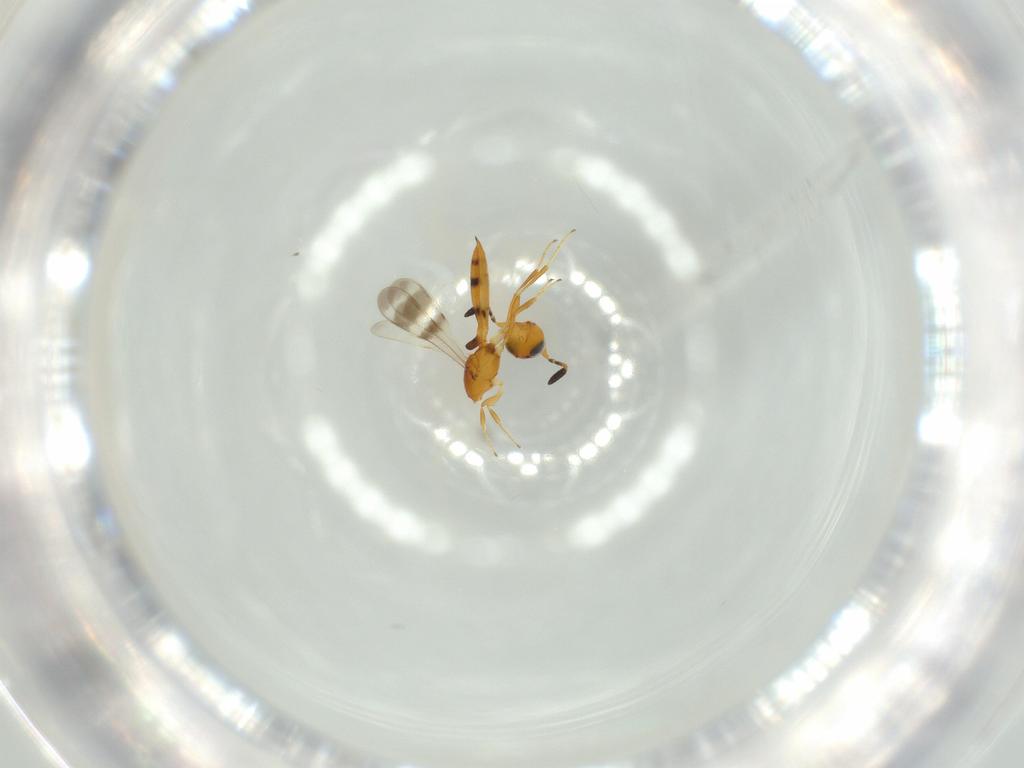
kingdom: Animalia
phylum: Arthropoda
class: Insecta
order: Hymenoptera
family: Scelionidae
